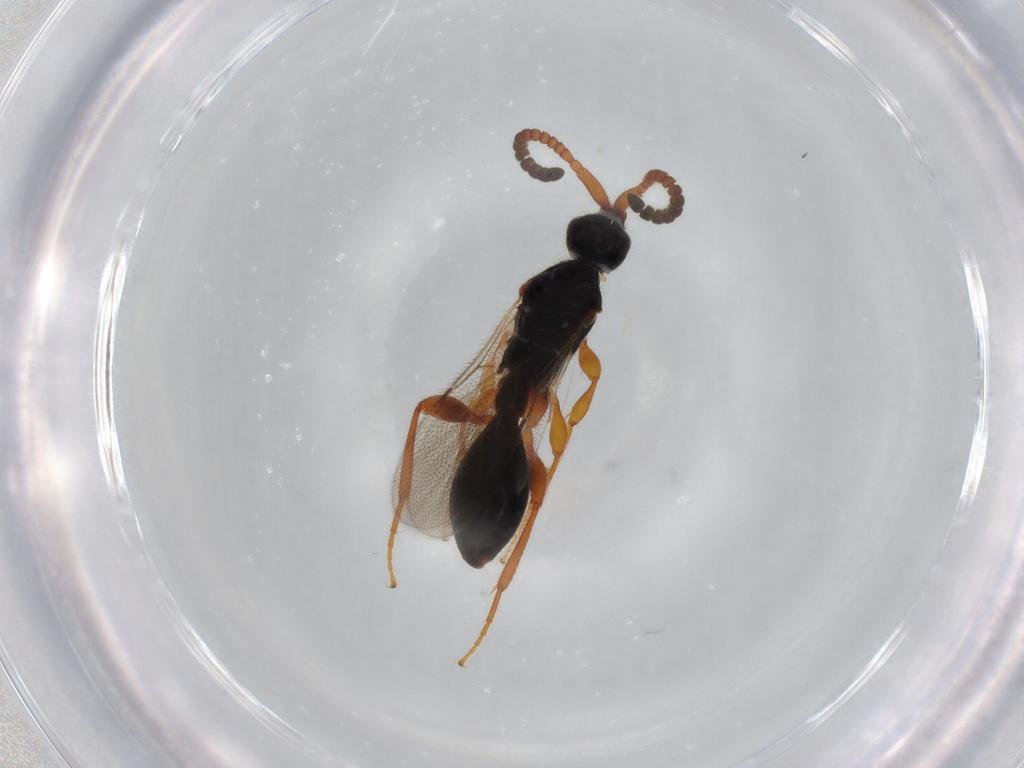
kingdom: Animalia
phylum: Arthropoda
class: Insecta
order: Hymenoptera
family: Diapriidae
